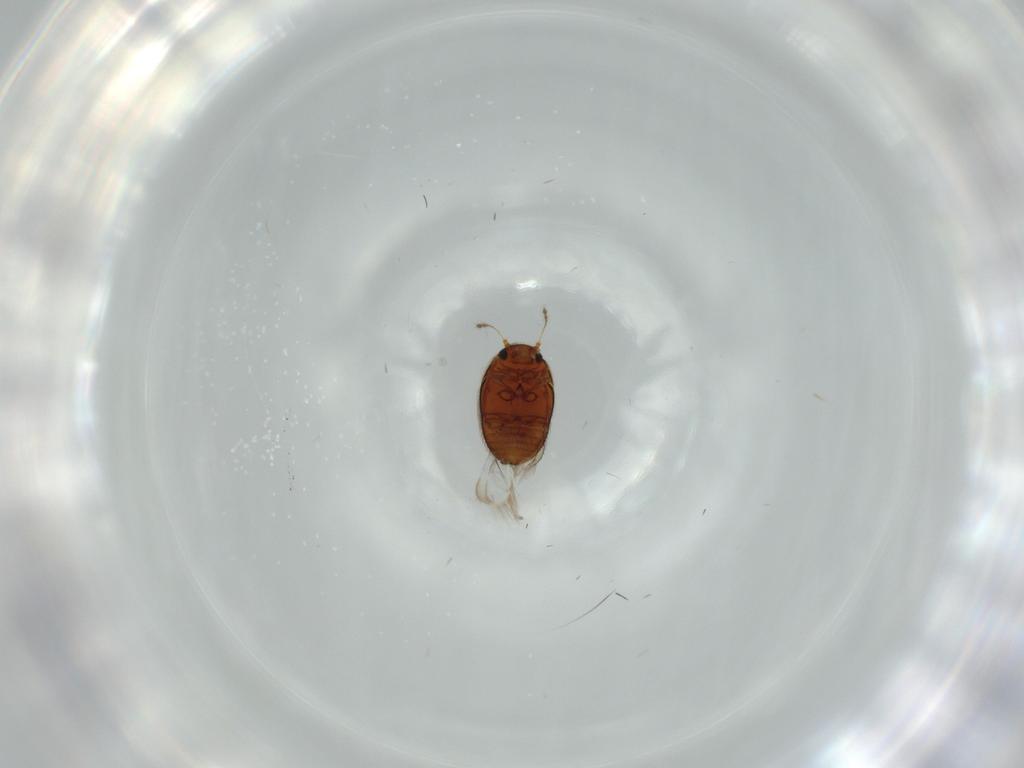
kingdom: Animalia
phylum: Arthropoda
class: Insecta
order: Coleoptera
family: Ptiliidae
